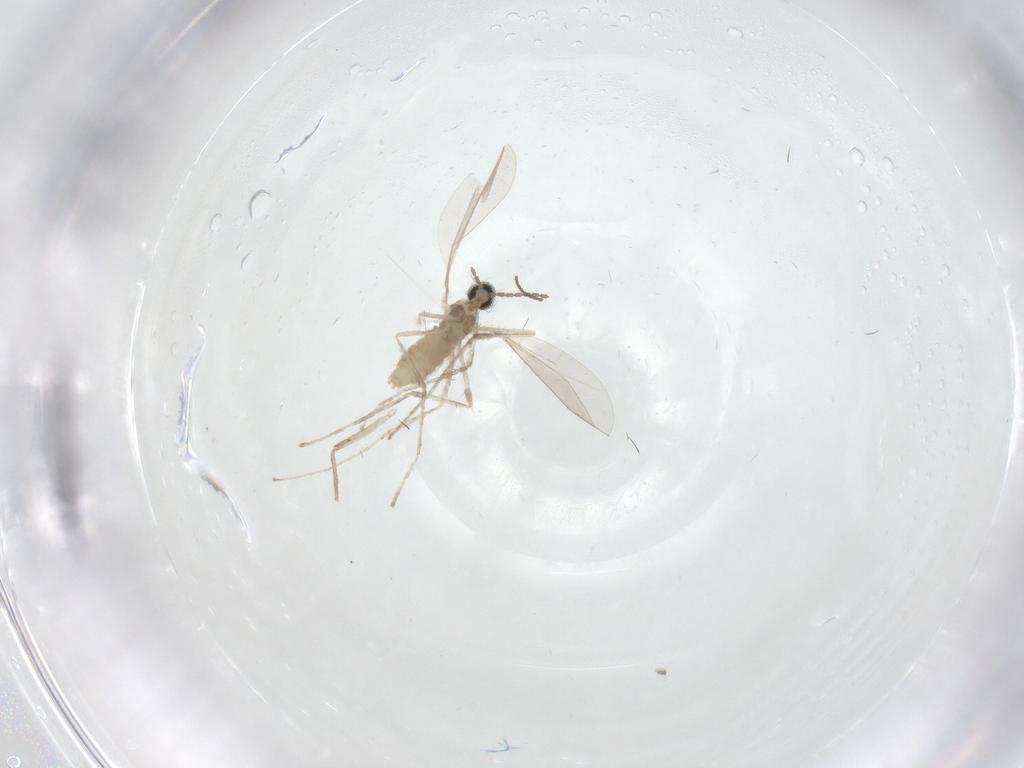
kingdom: Animalia
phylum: Arthropoda
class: Insecta
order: Diptera
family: Cecidomyiidae
